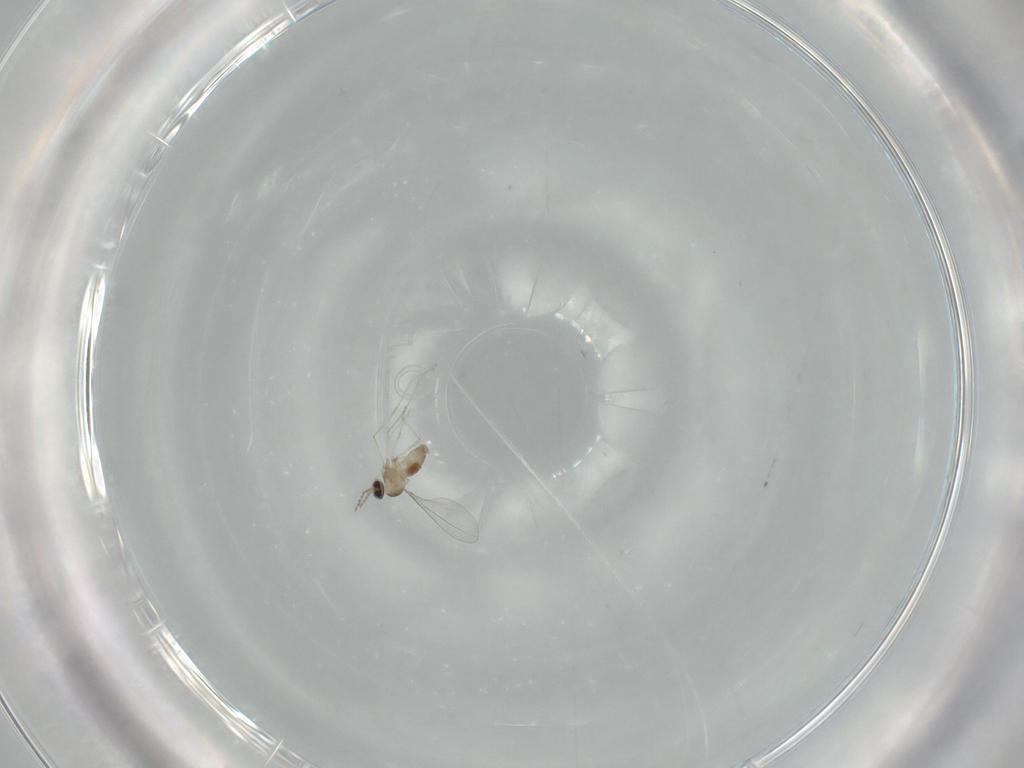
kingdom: Animalia
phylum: Arthropoda
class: Insecta
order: Diptera
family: Cecidomyiidae
